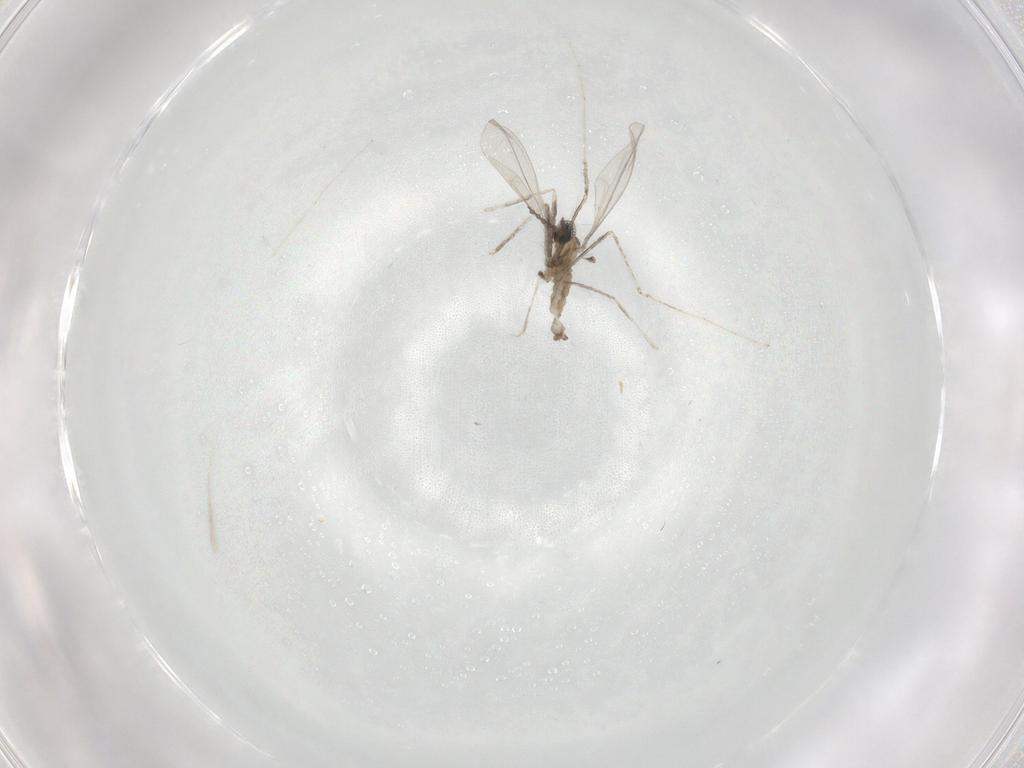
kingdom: Animalia
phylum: Arthropoda
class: Insecta
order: Diptera
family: Cecidomyiidae
